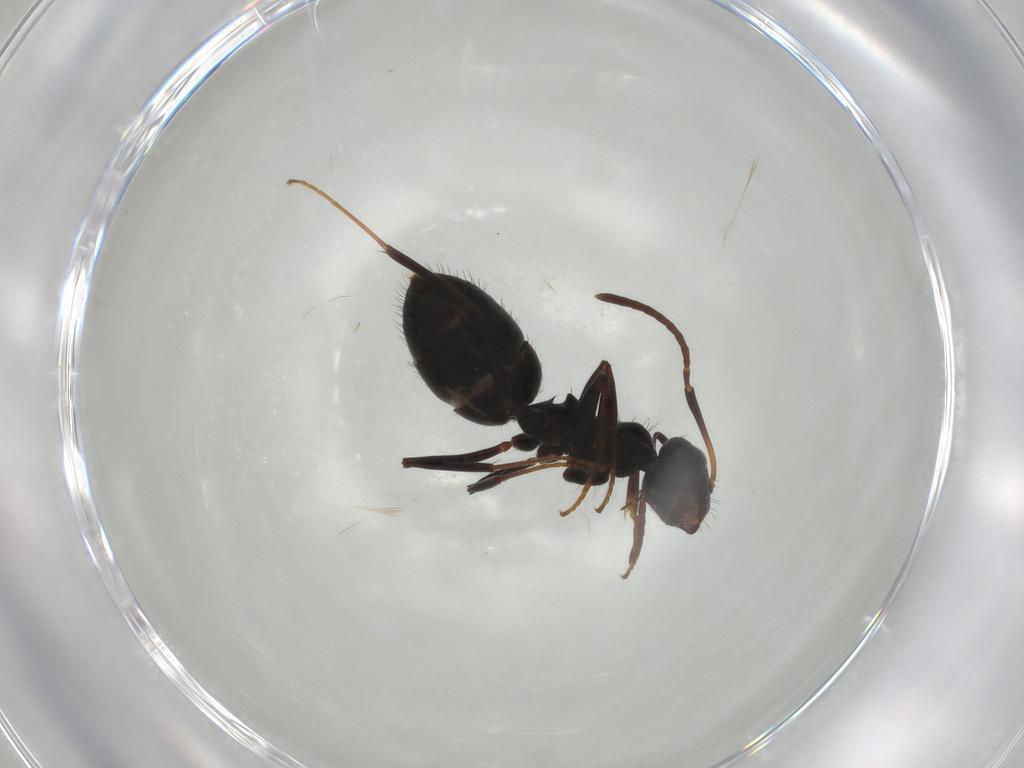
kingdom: Animalia
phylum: Arthropoda
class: Insecta
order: Hymenoptera
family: Formicidae
